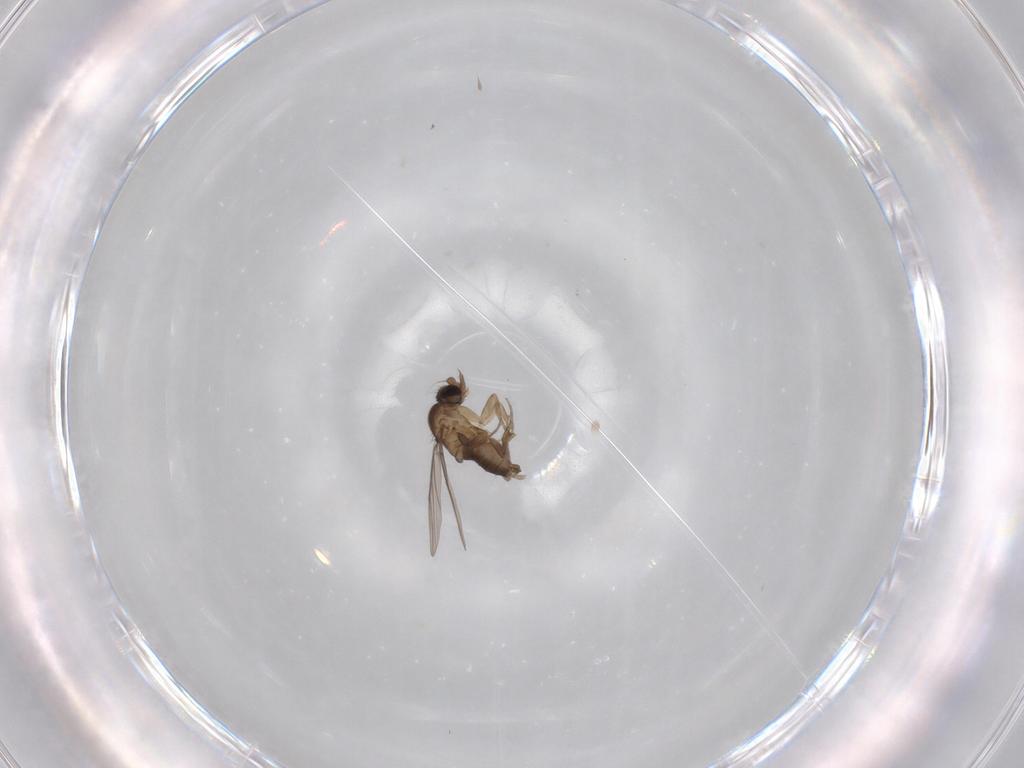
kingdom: Animalia
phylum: Arthropoda
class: Insecta
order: Diptera
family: Phoridae
